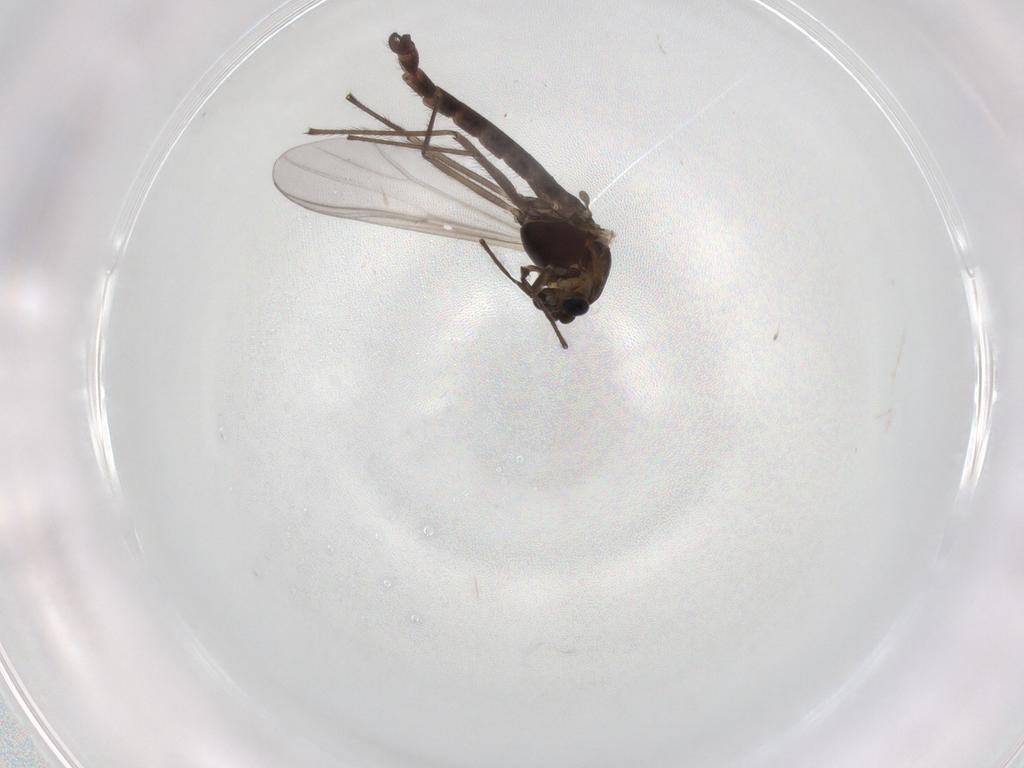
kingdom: Animalia
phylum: Arthropoda
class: Insecta
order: Diptera
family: Chironomidae
